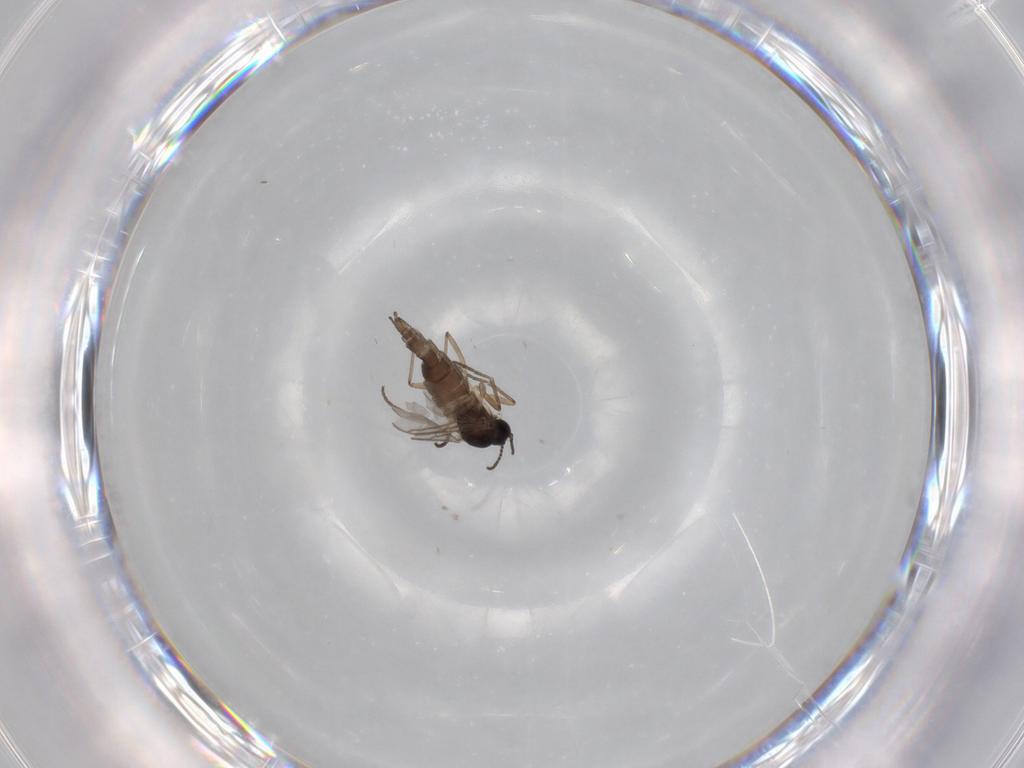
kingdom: Animalia
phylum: Arthropoda
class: Insecta
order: Diptera
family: Sciaridae
